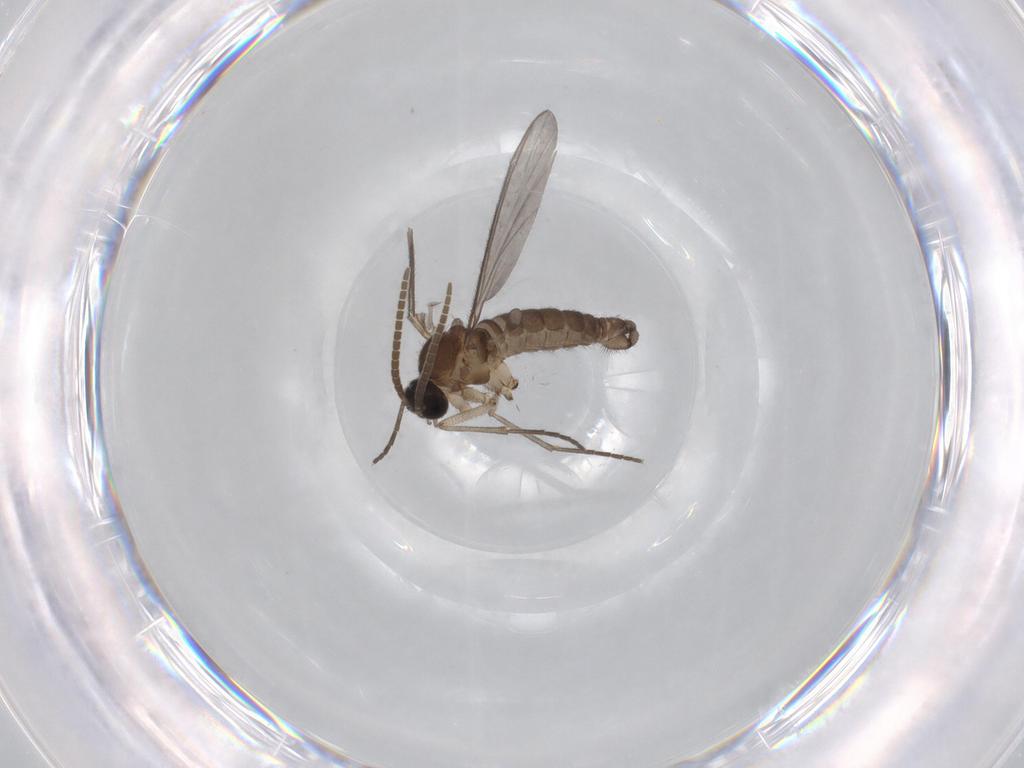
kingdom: Animalia
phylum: Arthropoda
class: Insecta
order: Diptera
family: Sciaridae
